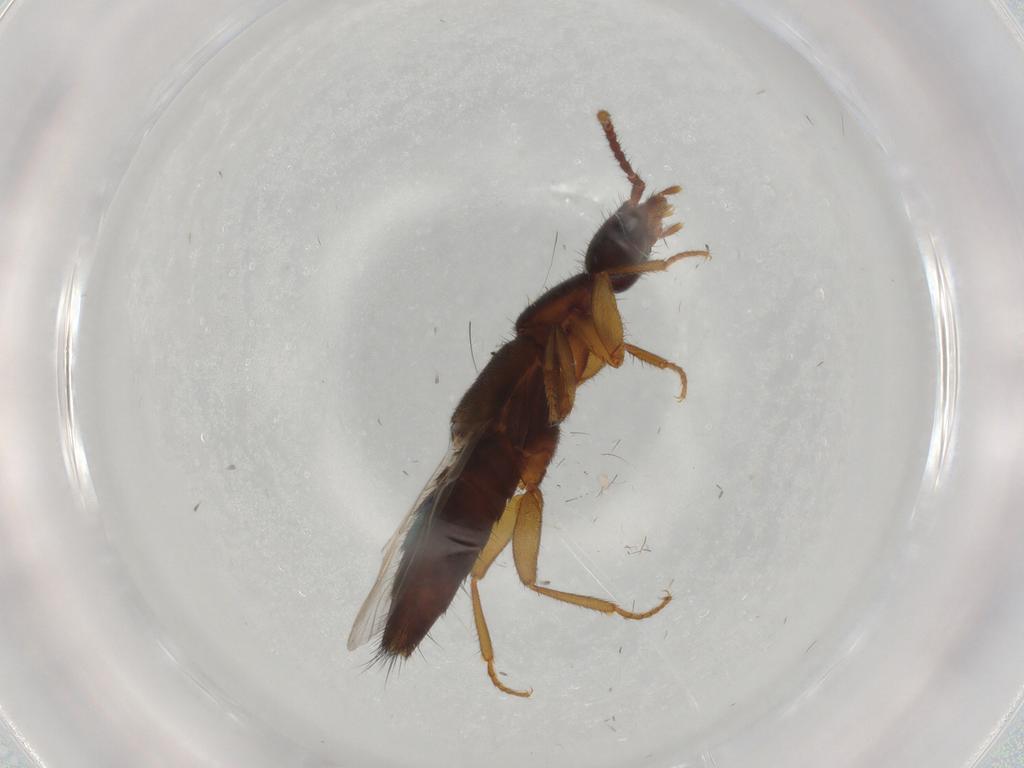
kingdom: Animalia
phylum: Arthropoda
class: Insecta
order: Coleoptera
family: Staphylinidae
